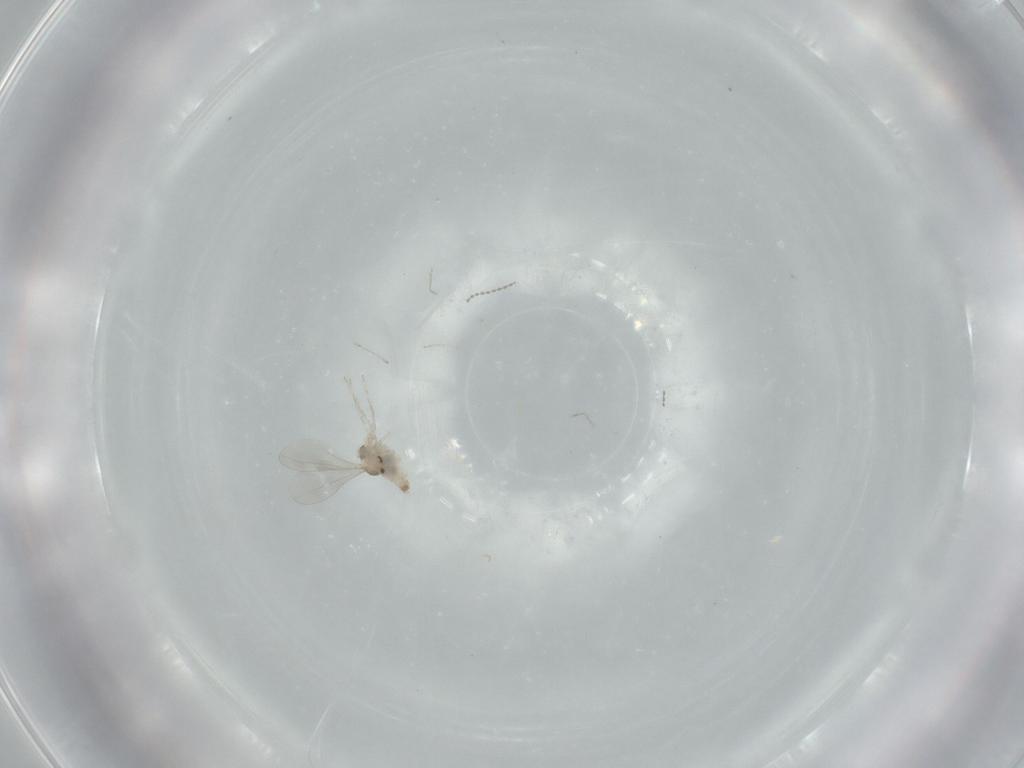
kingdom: Animalia
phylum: Arthropoda
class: Insecta
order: Diptera
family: Cecidomyiidae
